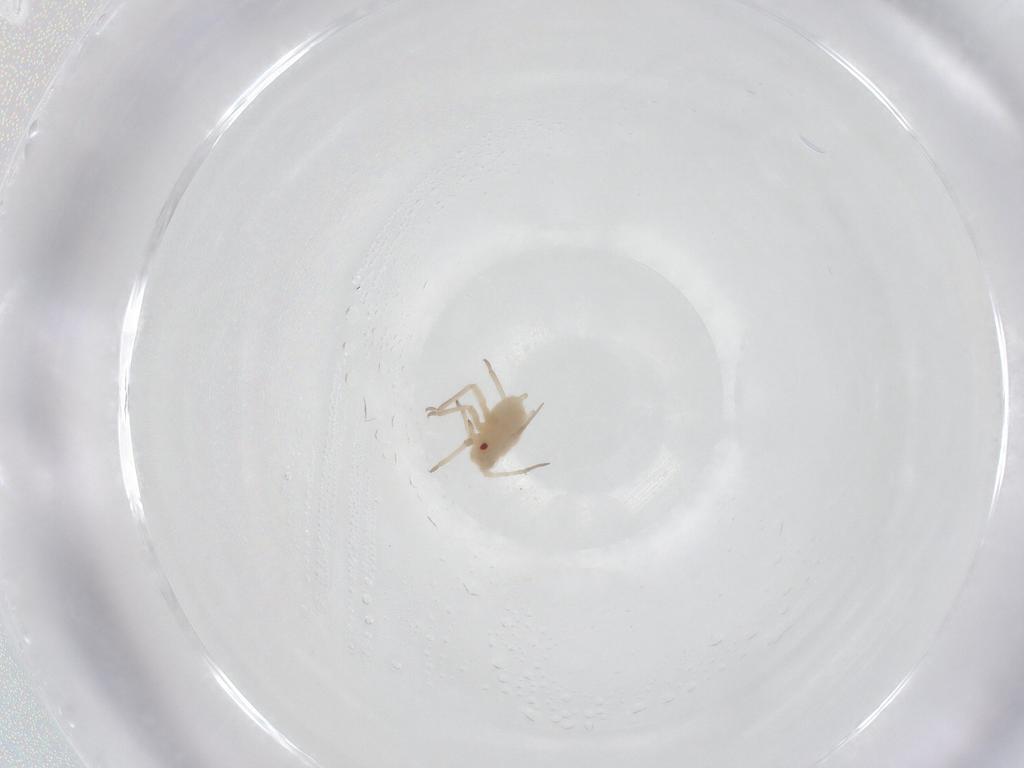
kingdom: Animalia
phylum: Arthropoda
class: Insecta
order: Hemiptera
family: Aphididae
